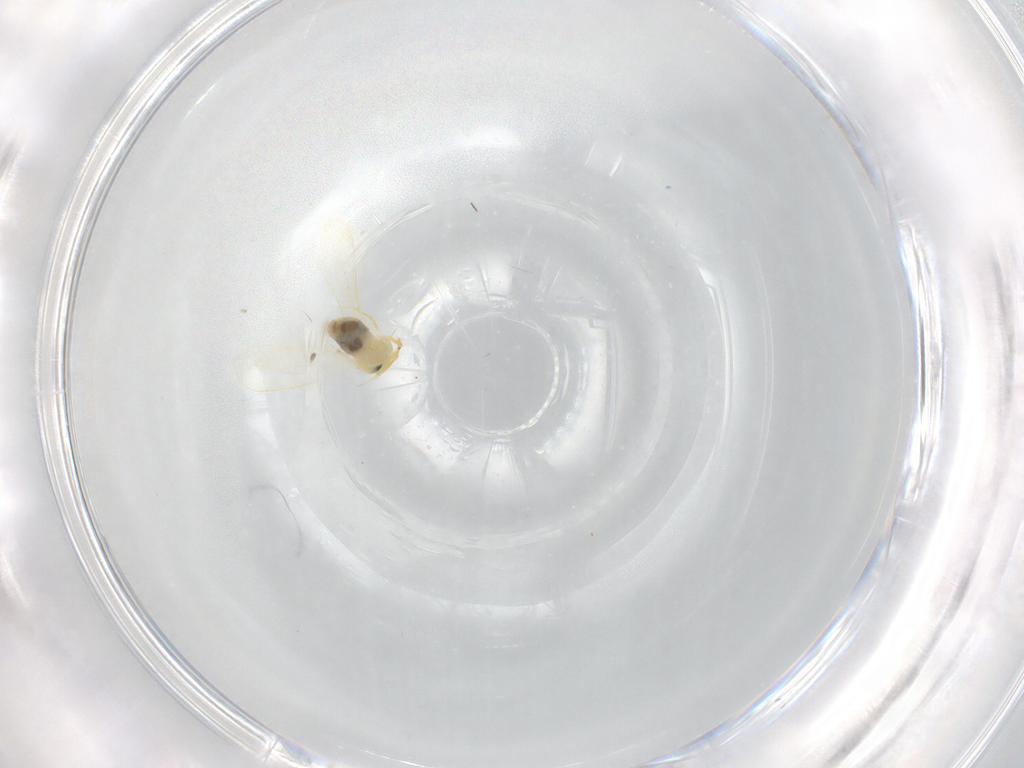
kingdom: Animalia
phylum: Arthropoda
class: Insecta
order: Hemiptera
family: Aleyrodidae
